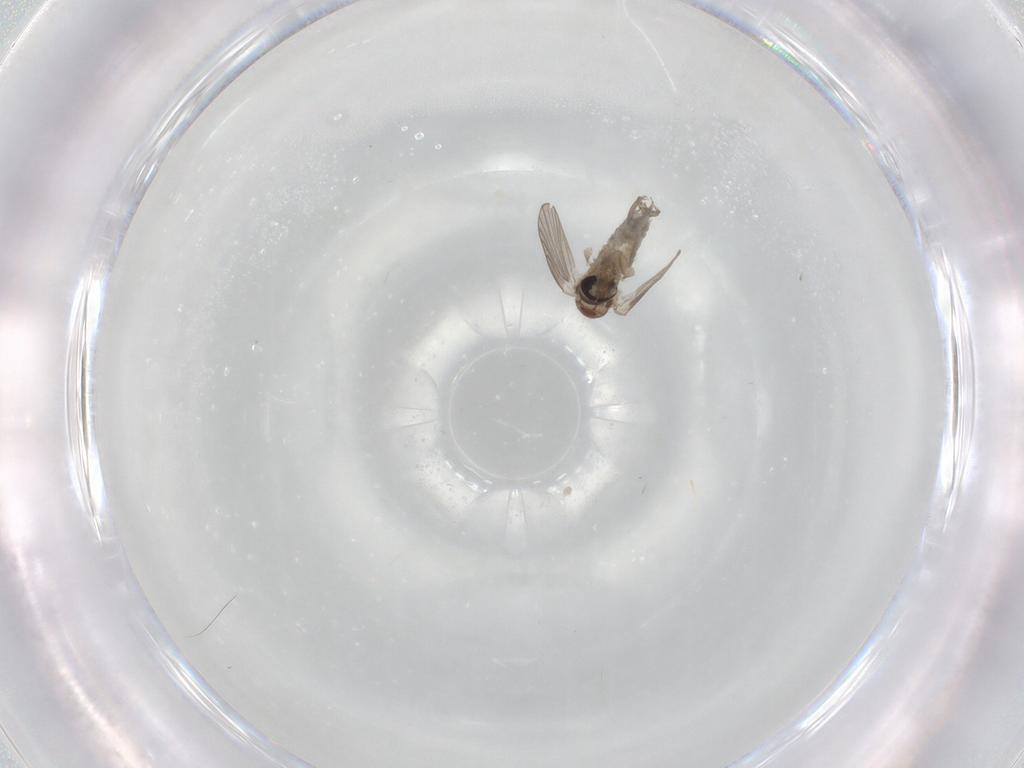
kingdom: Animalia
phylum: Arthropoda
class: Insecta
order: Diptera
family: Psychodidae
